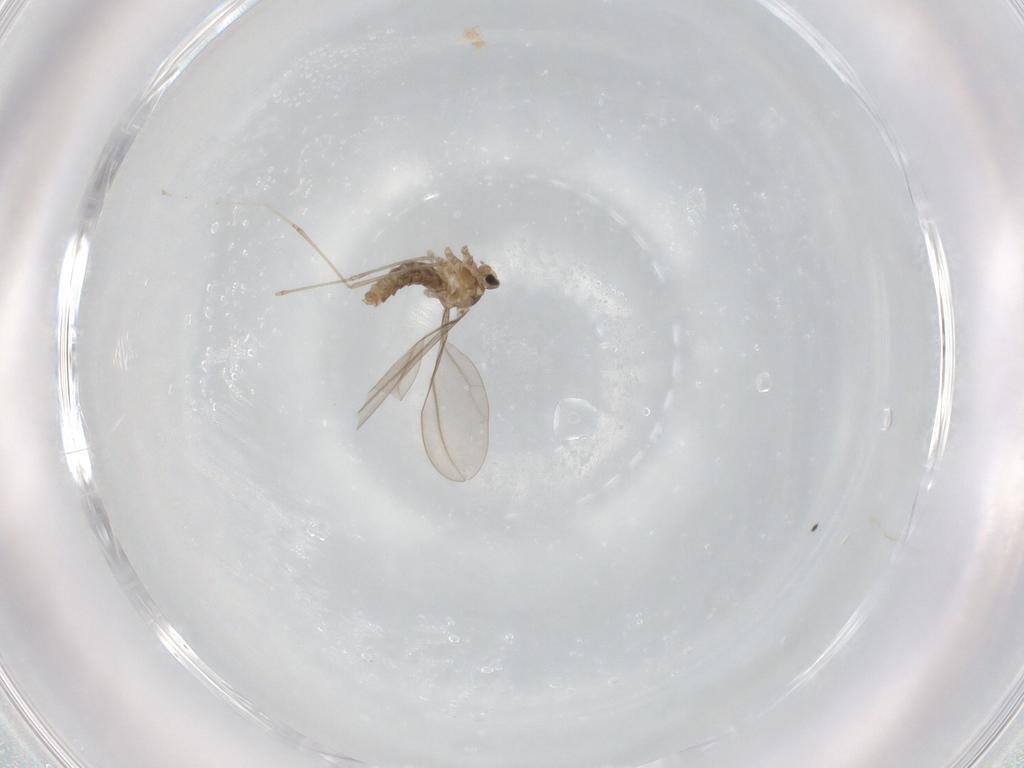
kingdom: Animalia
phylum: Arthropoda
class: Insecta
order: Diptera
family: Cecidomyiidae
